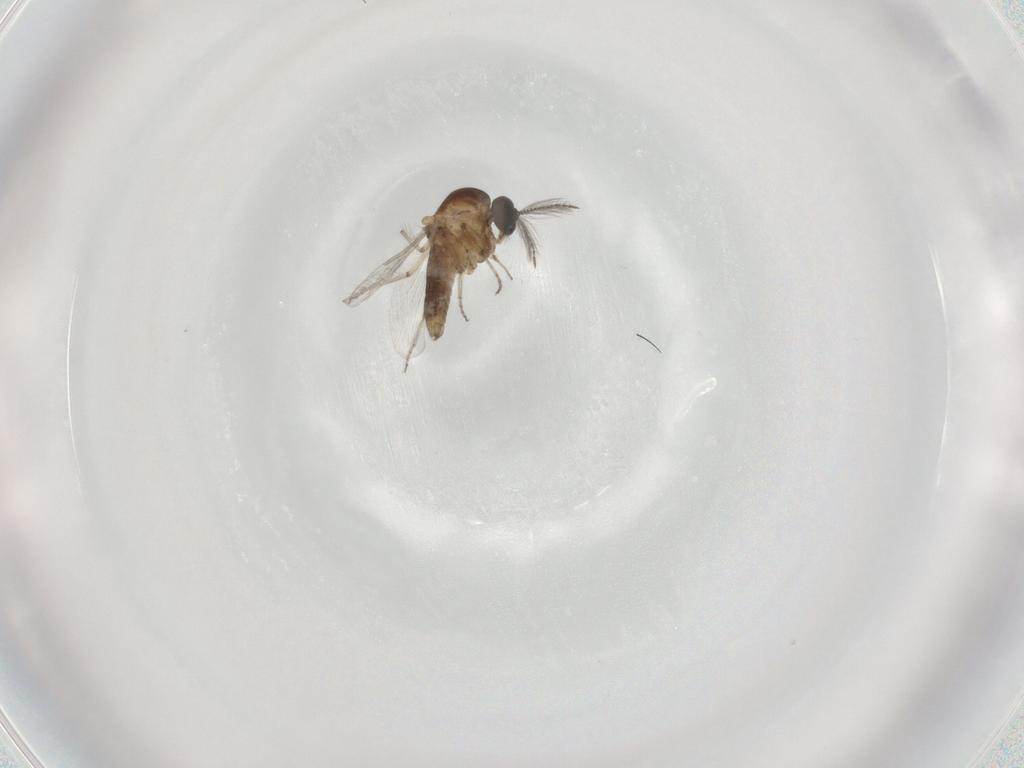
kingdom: Animalia
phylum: Arthropoda
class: Insecta
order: Diptera
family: Ceratopogonidae
